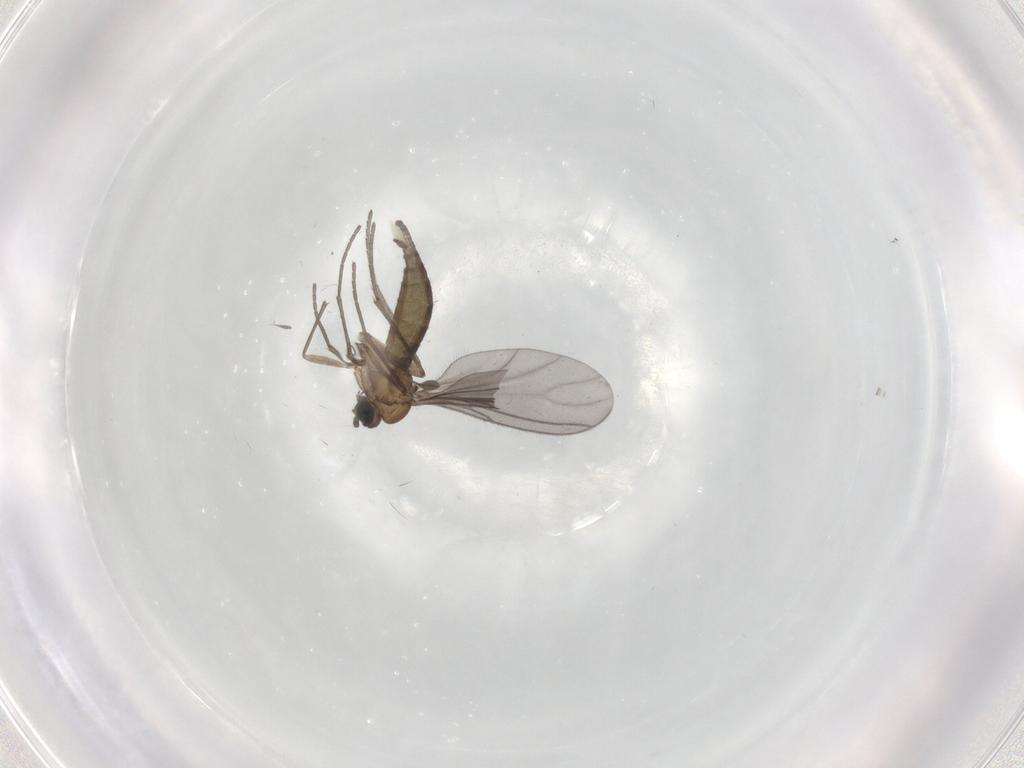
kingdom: Animalia
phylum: Arthropoda
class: Insecta
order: Diptera
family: Sciaridae
